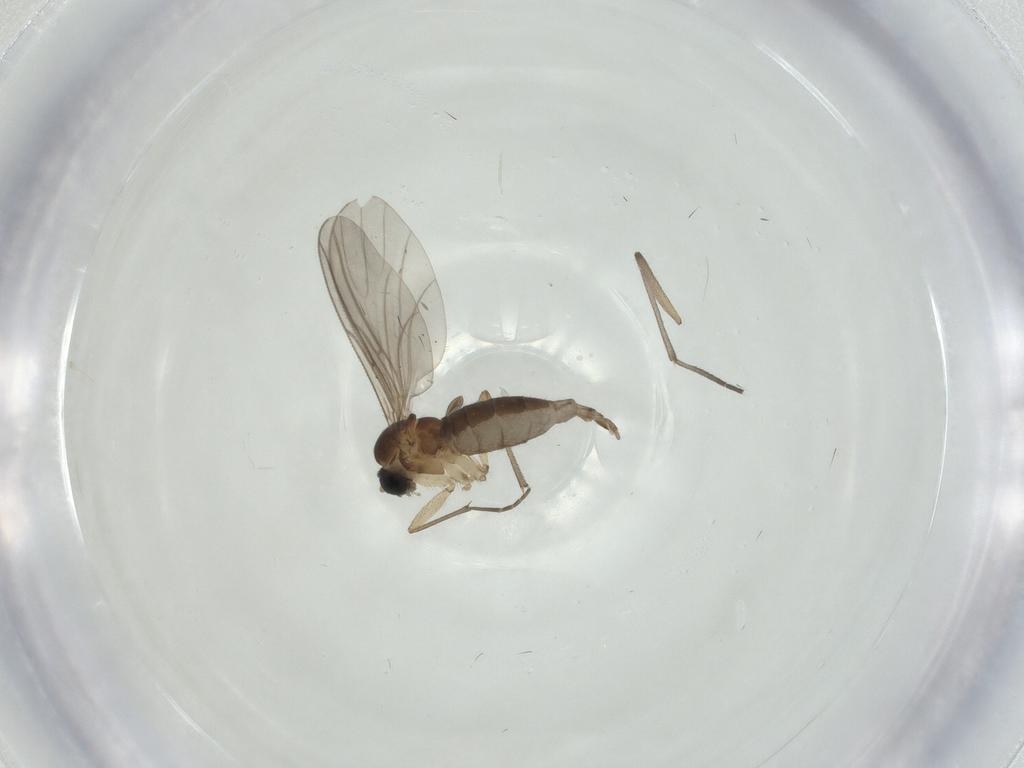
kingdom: Animalia
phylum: Arthropoda
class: Insecta
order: Diptera
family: Sciaridae
